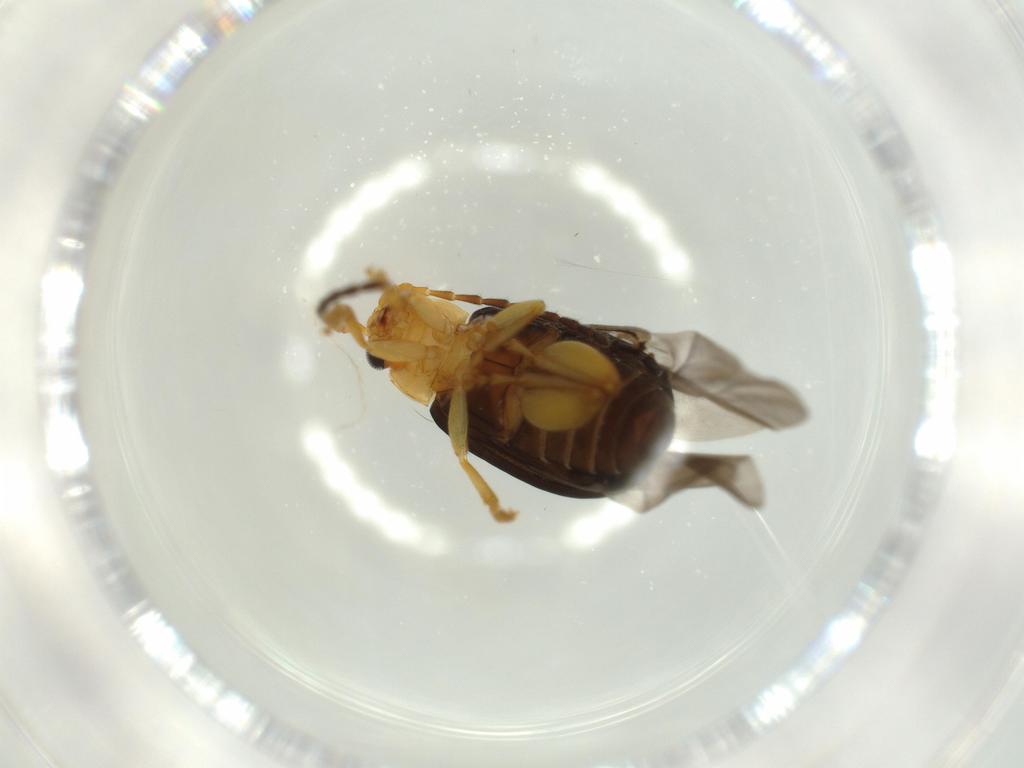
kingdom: Animalia
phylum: Arthropoda
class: Insecta
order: Coleoptera
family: Chrysomelidae
